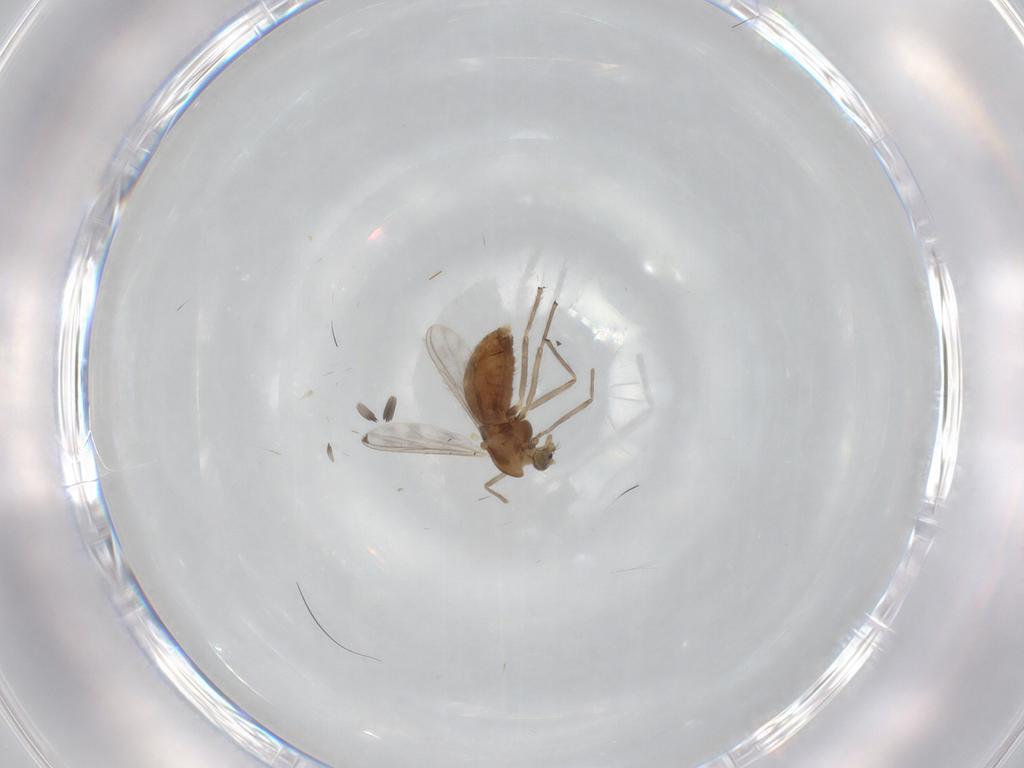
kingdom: Animalia
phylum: Arthropoda
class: Insecta
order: Diptera
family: Chironomidae
